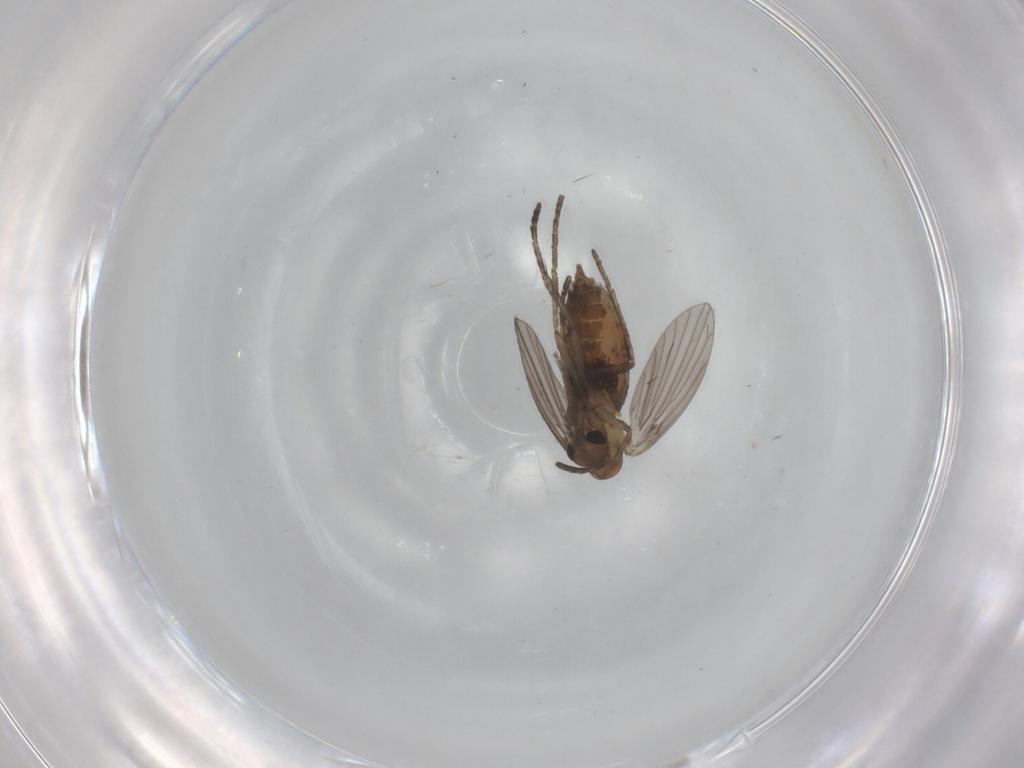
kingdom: Animalia
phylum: Arthropoda
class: Insecta
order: Diptera
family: Psychodidae
